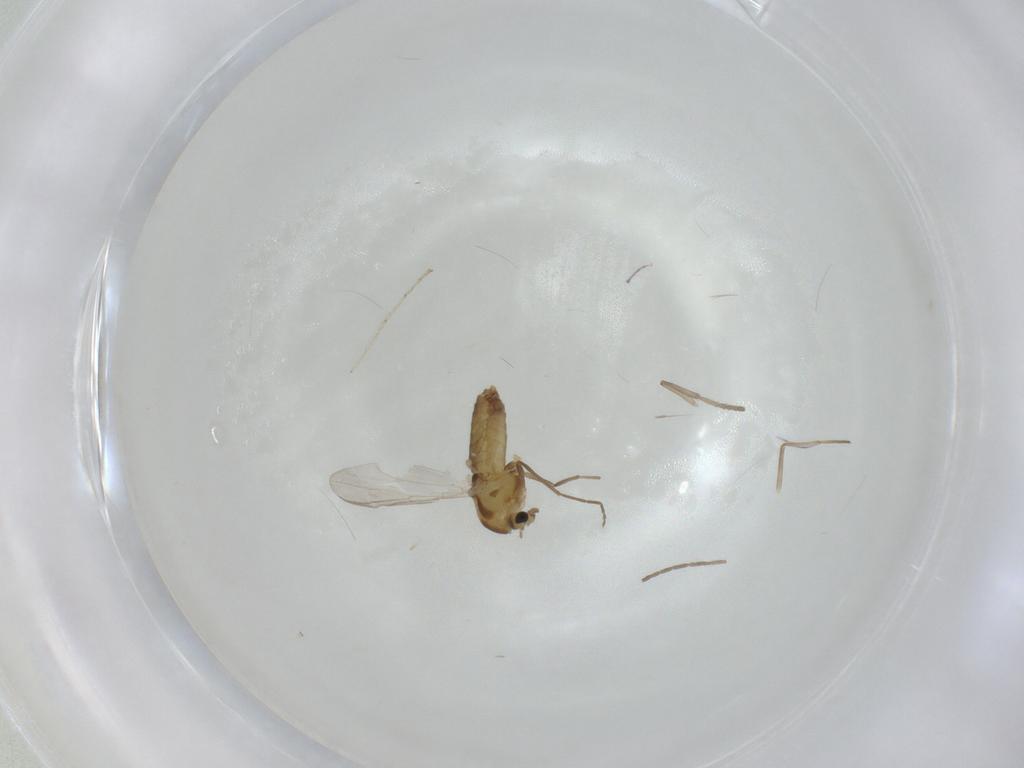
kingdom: Animalia
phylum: Arthropoda
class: Insecta
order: Diptera
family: Chironomidae
